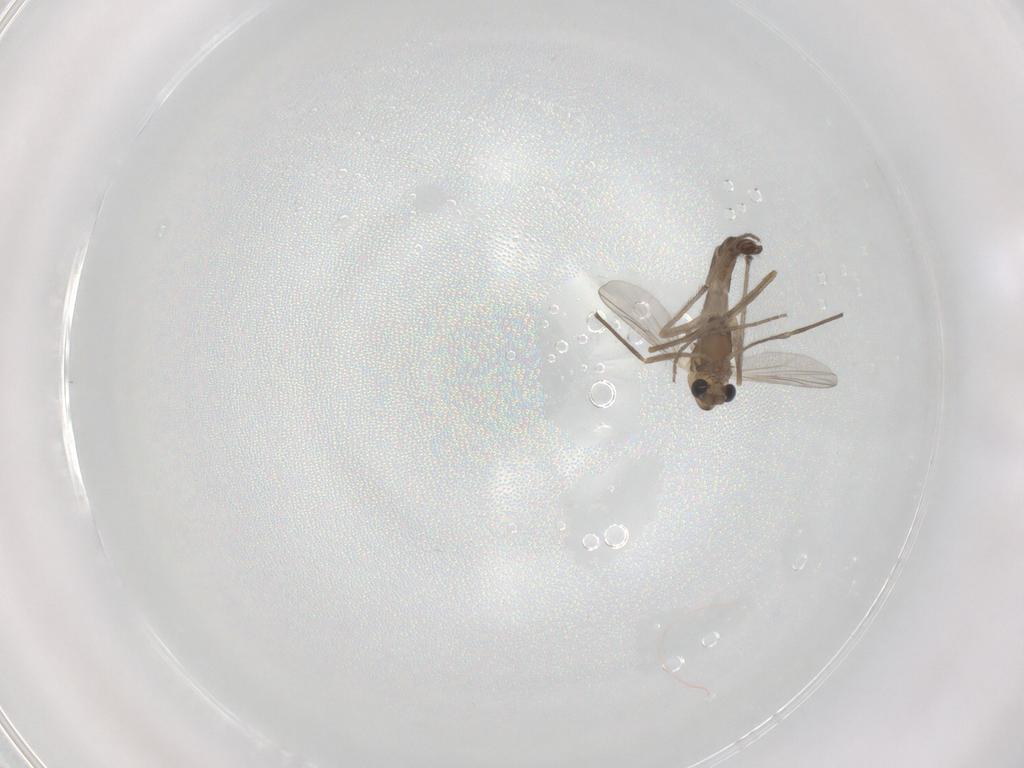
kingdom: Animalia
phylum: Arthropoda
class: Insecta
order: Diptera
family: Chironomidae
